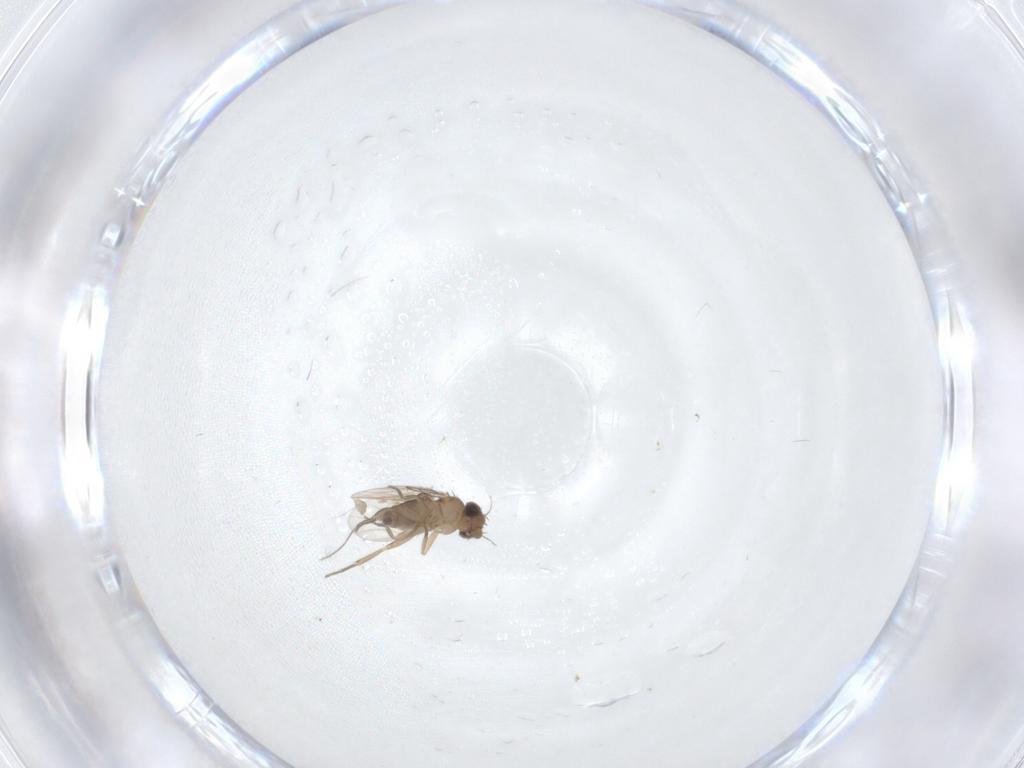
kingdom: Animalia
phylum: Arthropoda
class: Insecta
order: Diptera
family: Phoridae
